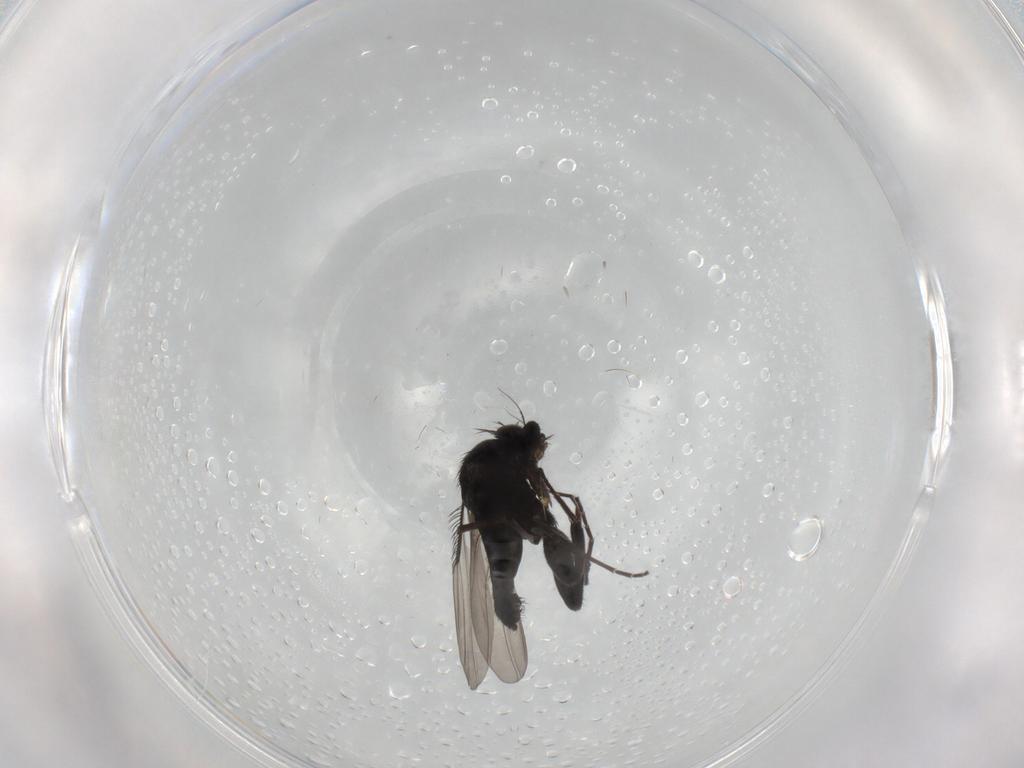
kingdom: Animalia
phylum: Arthropoda
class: Insecta
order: Diptera
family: Phoridae
